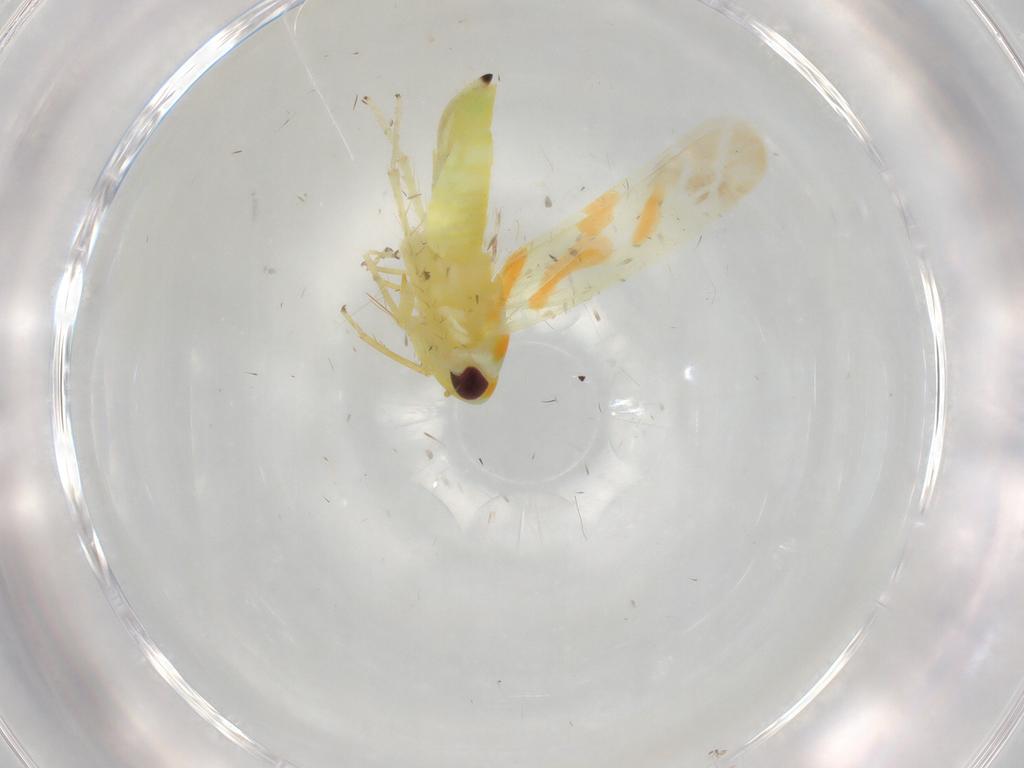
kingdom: Animalia
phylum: Arthropoda
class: Insecta
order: Hemiptera
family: Cicadellidae
